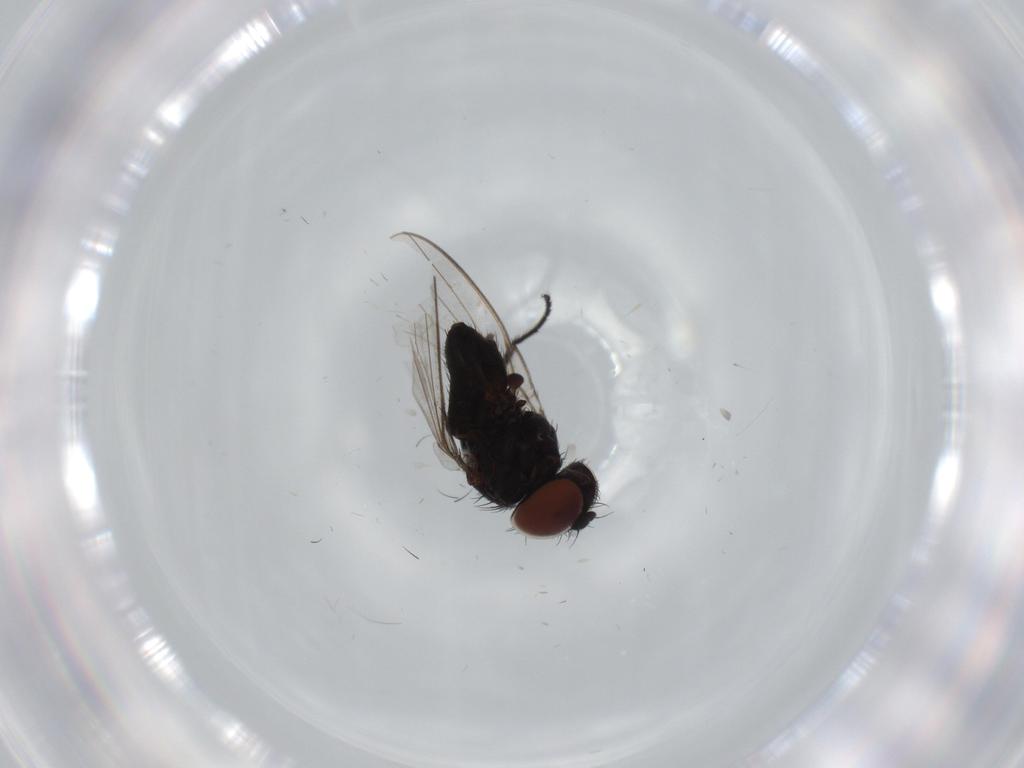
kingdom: Animalia
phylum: Arthropoda
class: Insecta
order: Diptera
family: Milichiidae
